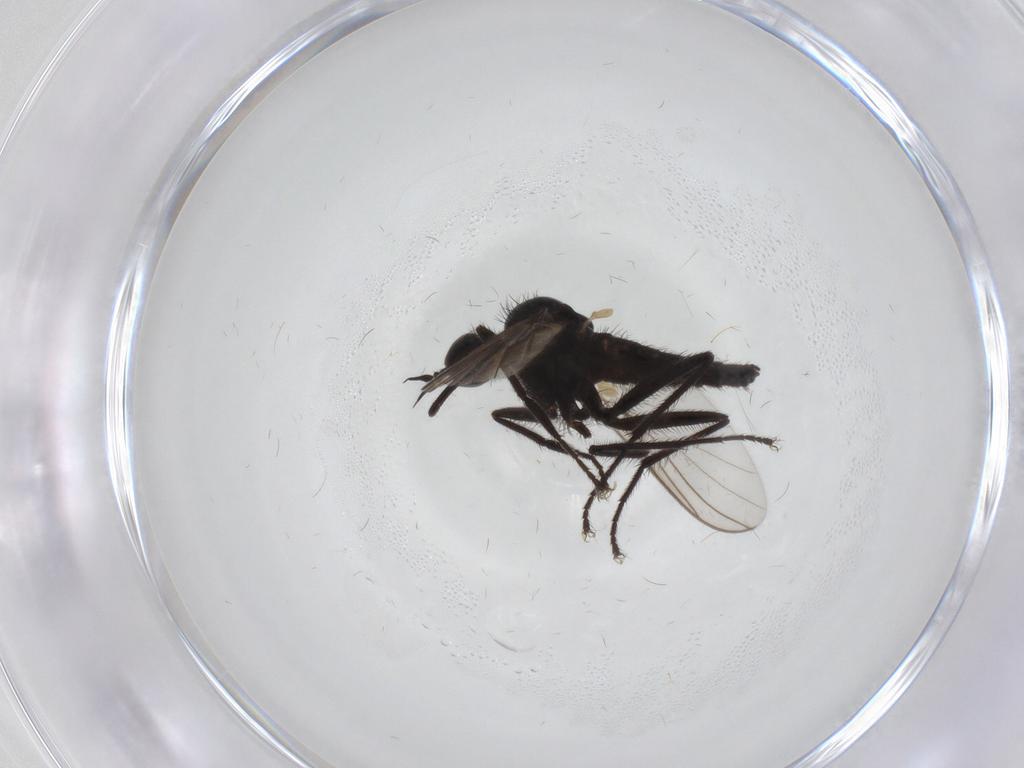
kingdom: Animalia
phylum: Arthropoda
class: Insecta
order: Diptera
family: Empididae
